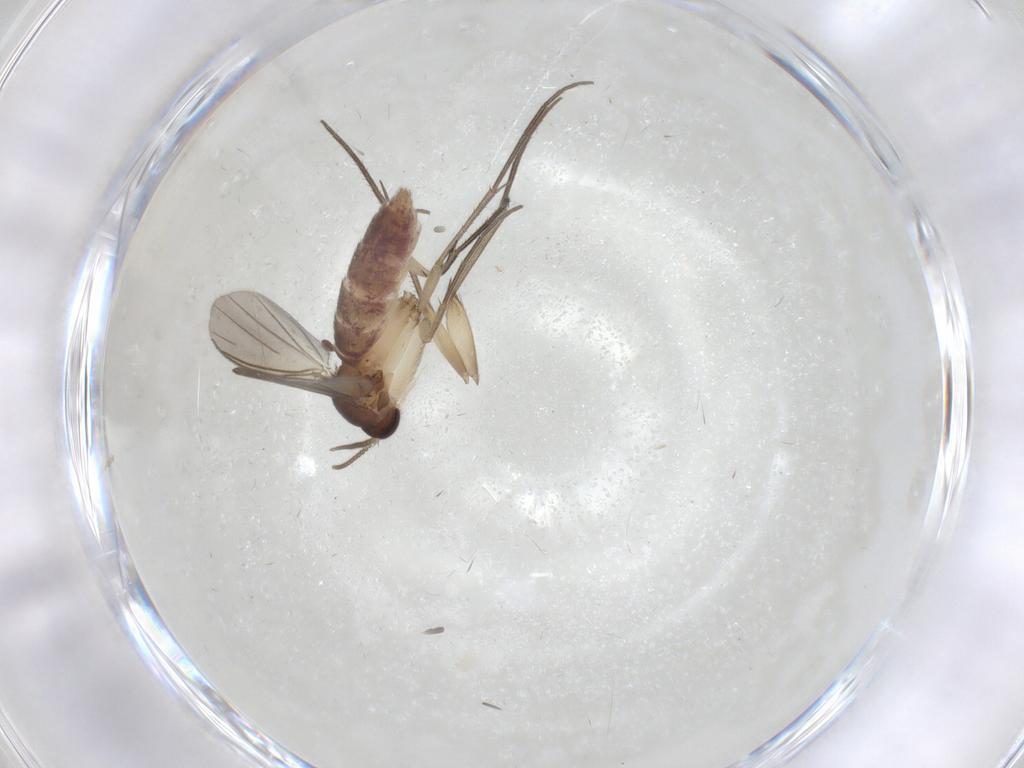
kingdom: Animalia
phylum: Arthropoda
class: Insecta
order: Diptera
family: Mycetophilidae
